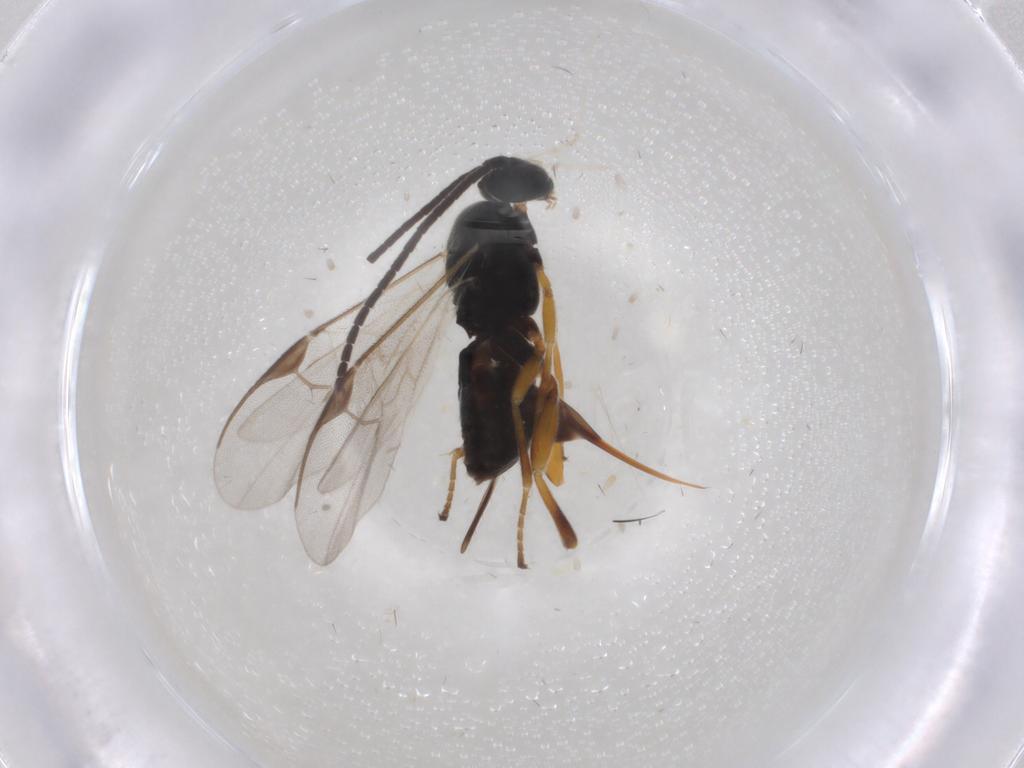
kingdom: Animalia
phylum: Arthropoda
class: Insecta
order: Hymenoptera
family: Braconidae
